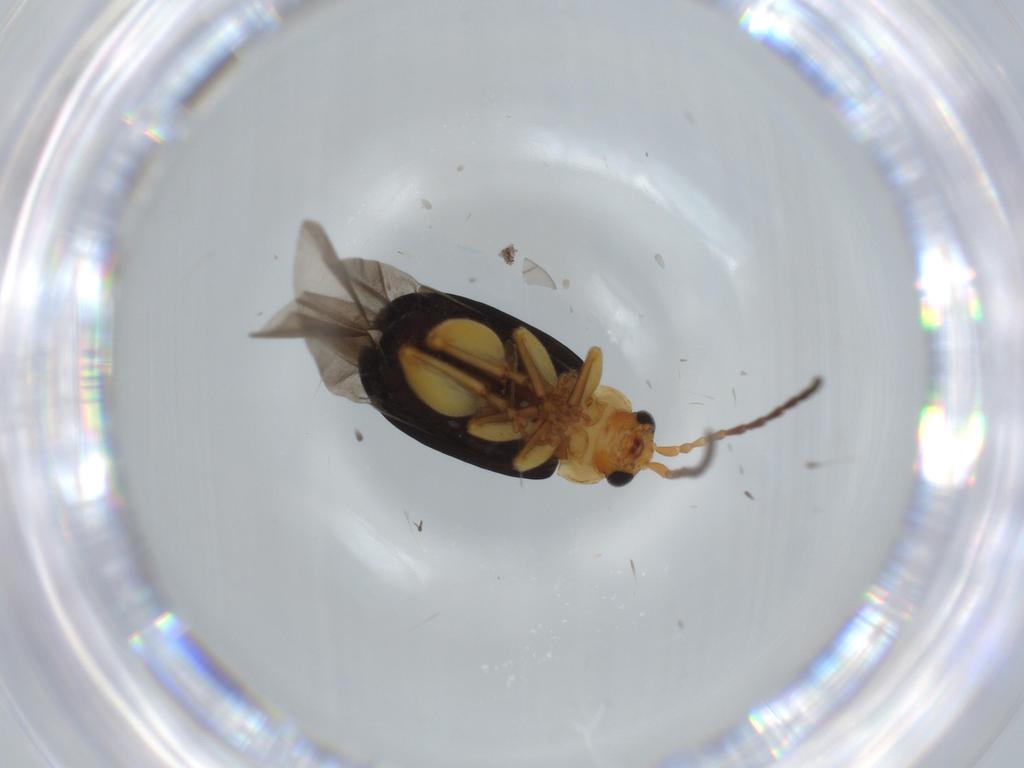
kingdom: Animalia
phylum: Arthropoda
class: Insecta
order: Coleoptera
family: Chrysomelidae
